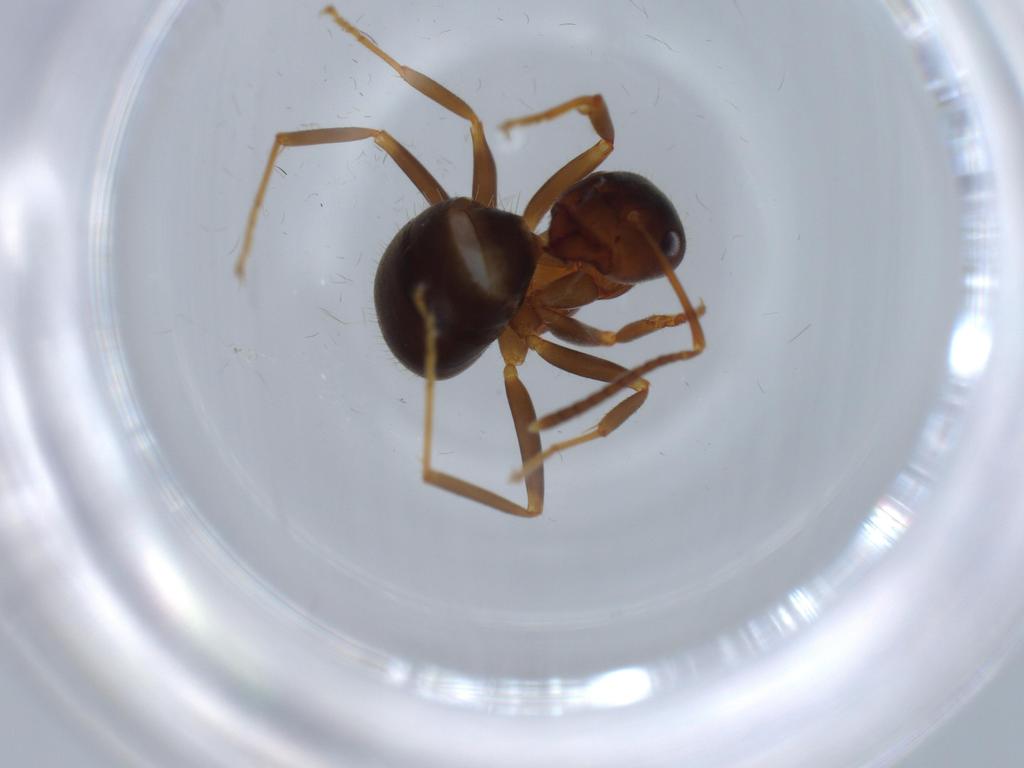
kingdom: Animalia
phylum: Arthropoda
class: Insecta
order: Hymenoptera
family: Formicidae
